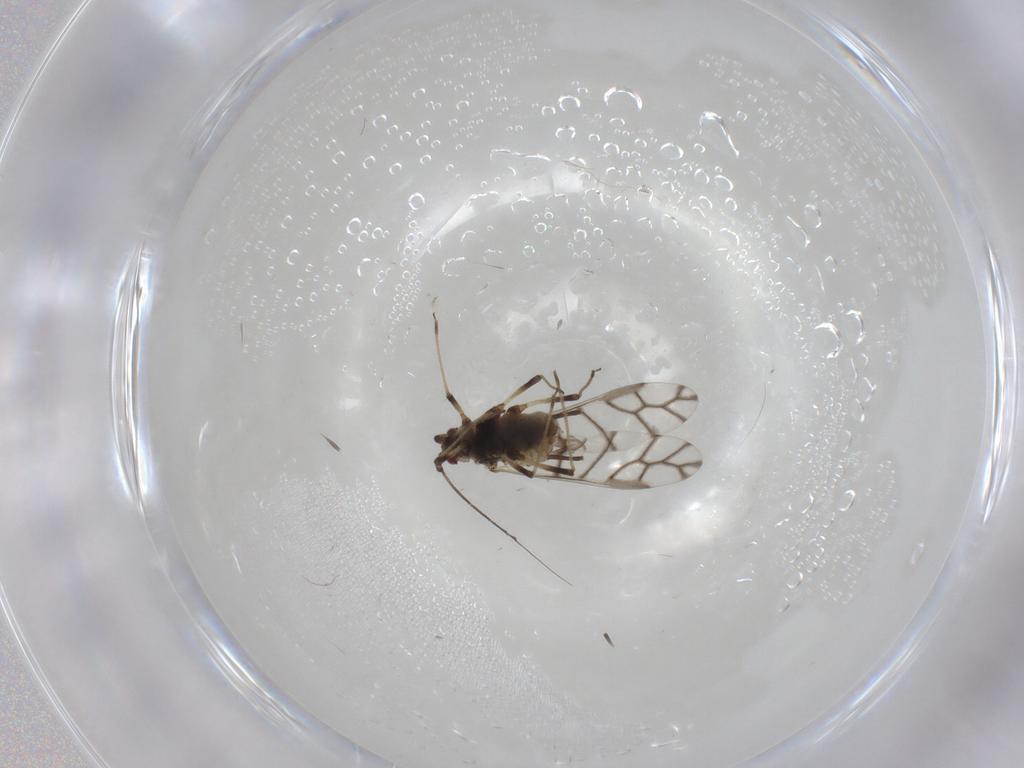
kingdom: Animalia
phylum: Arthropoda
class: Insecta
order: Hemiptera
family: Aphididae
